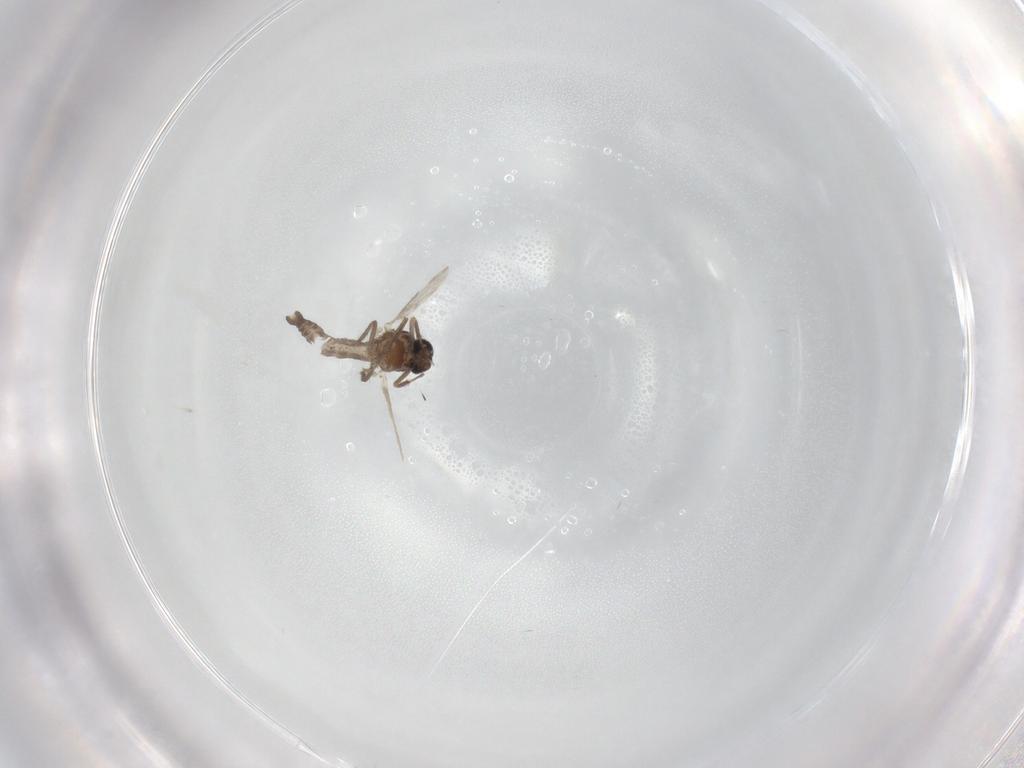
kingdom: Animalia
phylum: Arthropoda
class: Insecta
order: Diptera
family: Ceratopogonidae
